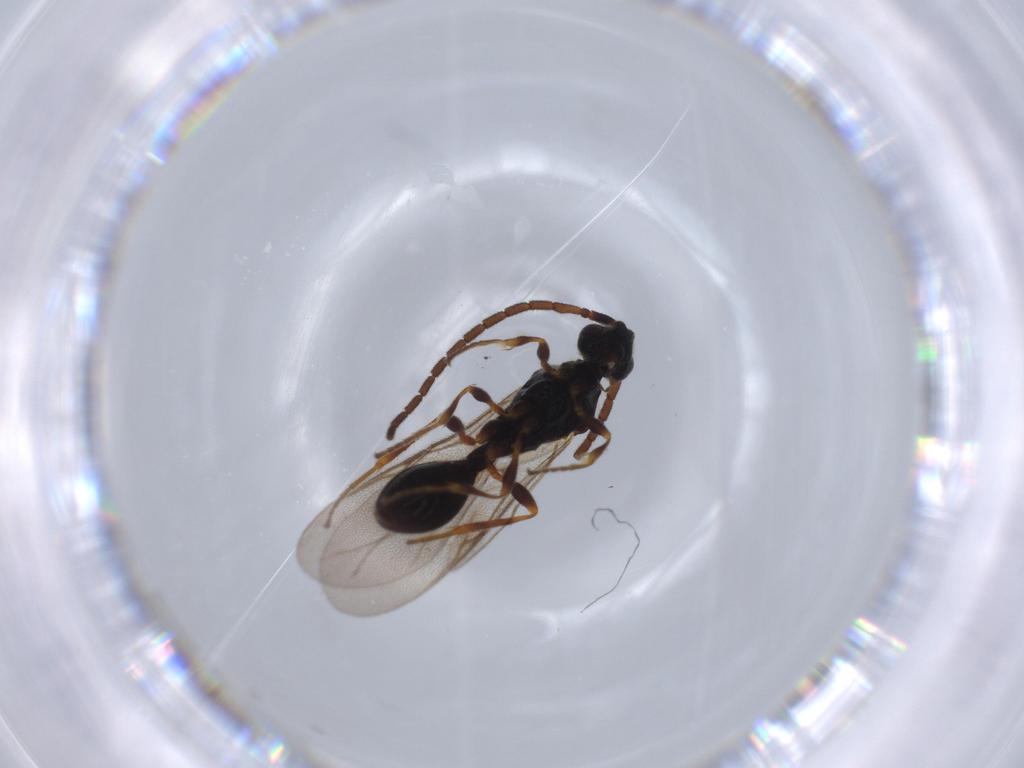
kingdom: Animalia
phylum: Arthropoda
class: Insecta
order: Hymenoptera
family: Diapriidae
